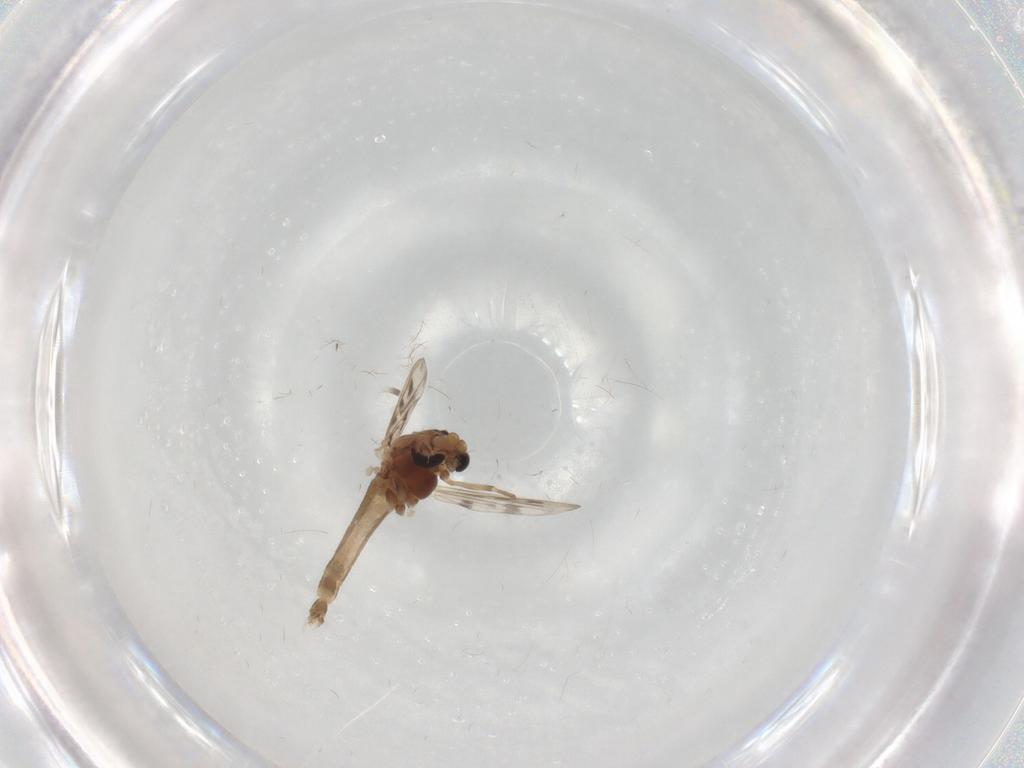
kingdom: Animalia
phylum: Arthropoda
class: Insecta
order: Diptera
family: Chironomidae
